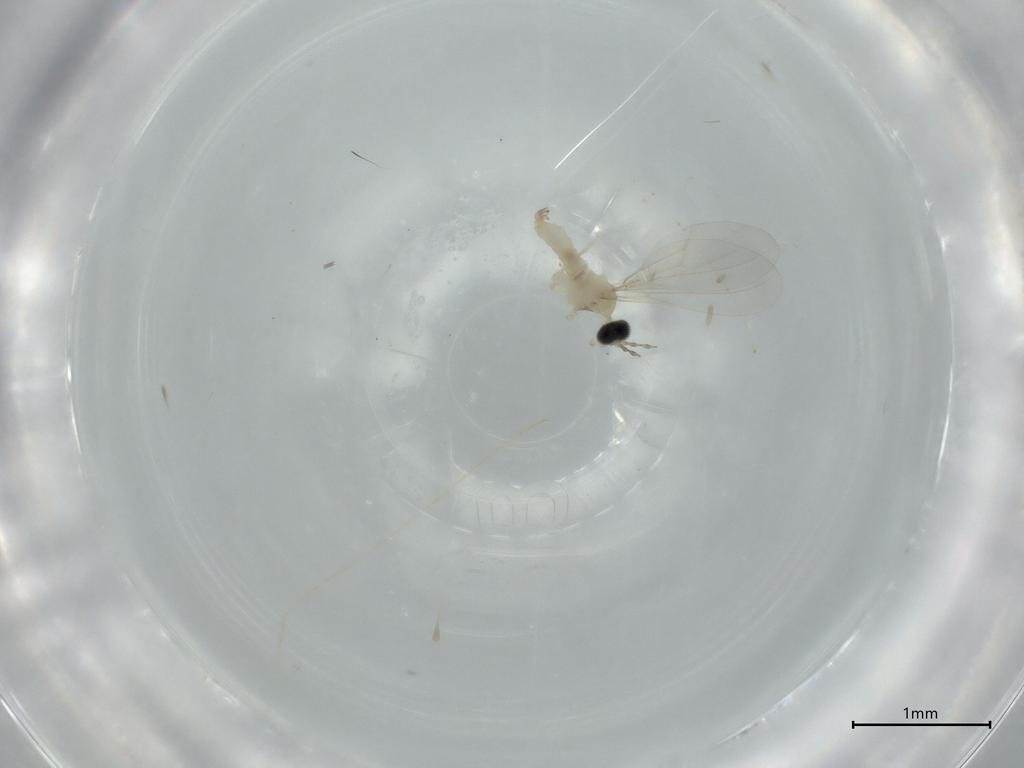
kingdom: Animalia
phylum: Arthropoda
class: Insecta
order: Diptera
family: Cecidomyiidae
